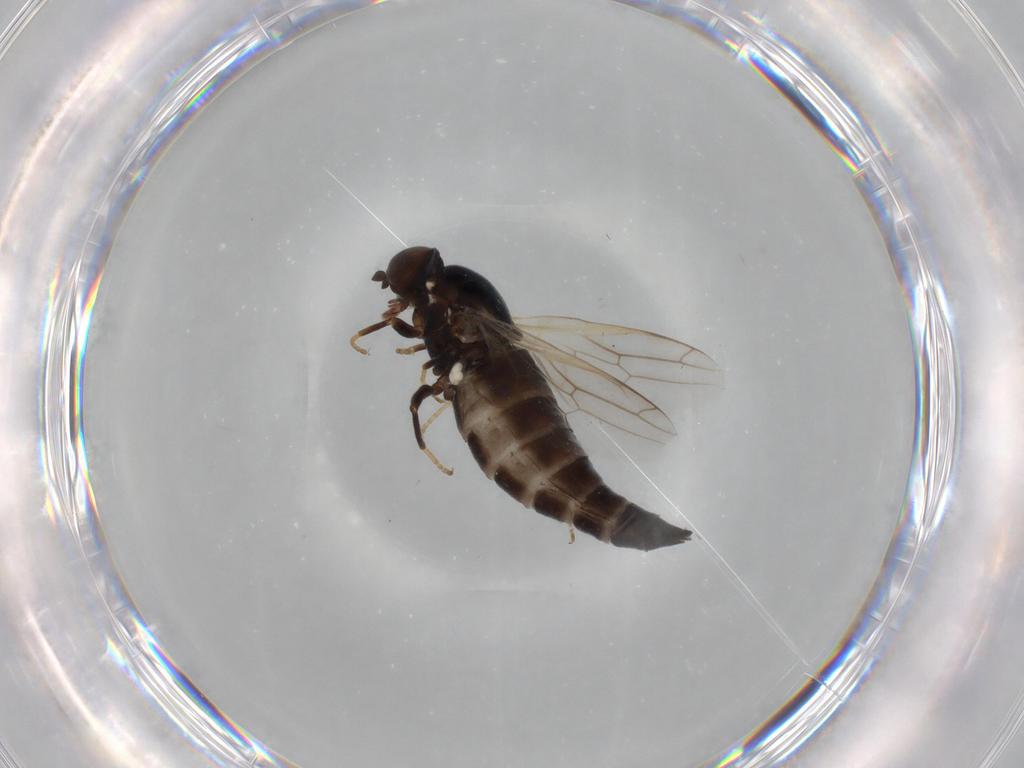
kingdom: Animalia
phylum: Arthropoda
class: Insecta
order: Diptera
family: Scenopinidae
